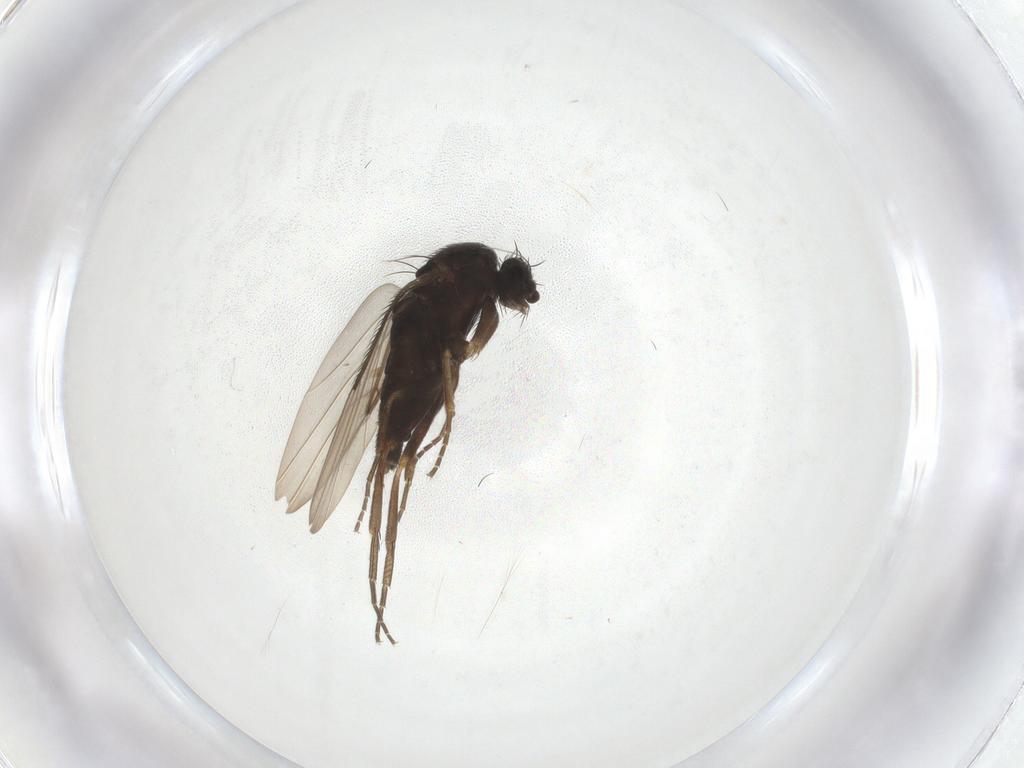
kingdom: Animalia
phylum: Arthropoda
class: Insecta
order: Diptera
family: Phoridae
